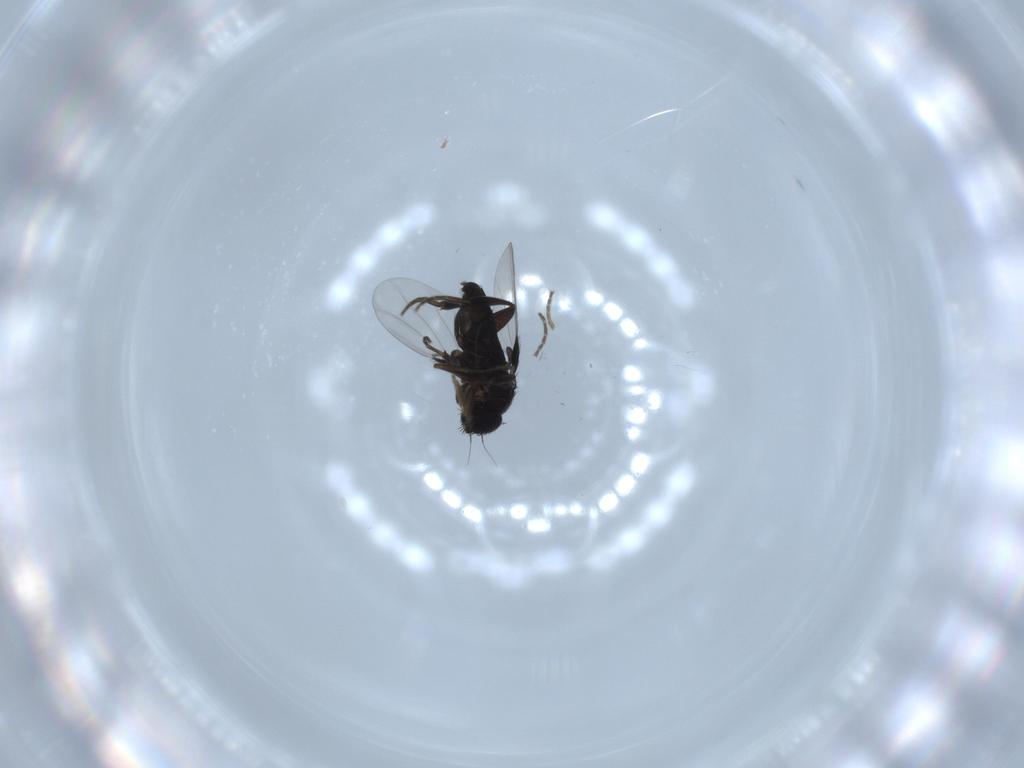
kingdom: Animalia
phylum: Arthropoda
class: Insecta
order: Diptera
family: Phoridae
